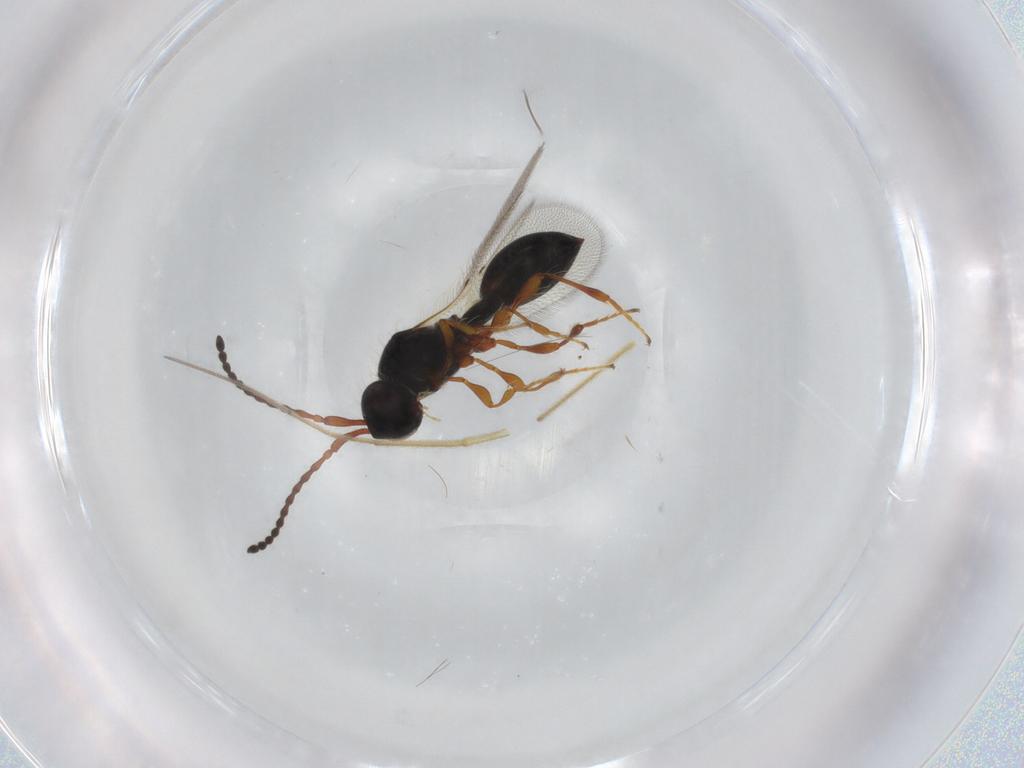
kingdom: Animalia
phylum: Arthropoda
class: Insecta
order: Hymenoptera
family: Diapriidae
